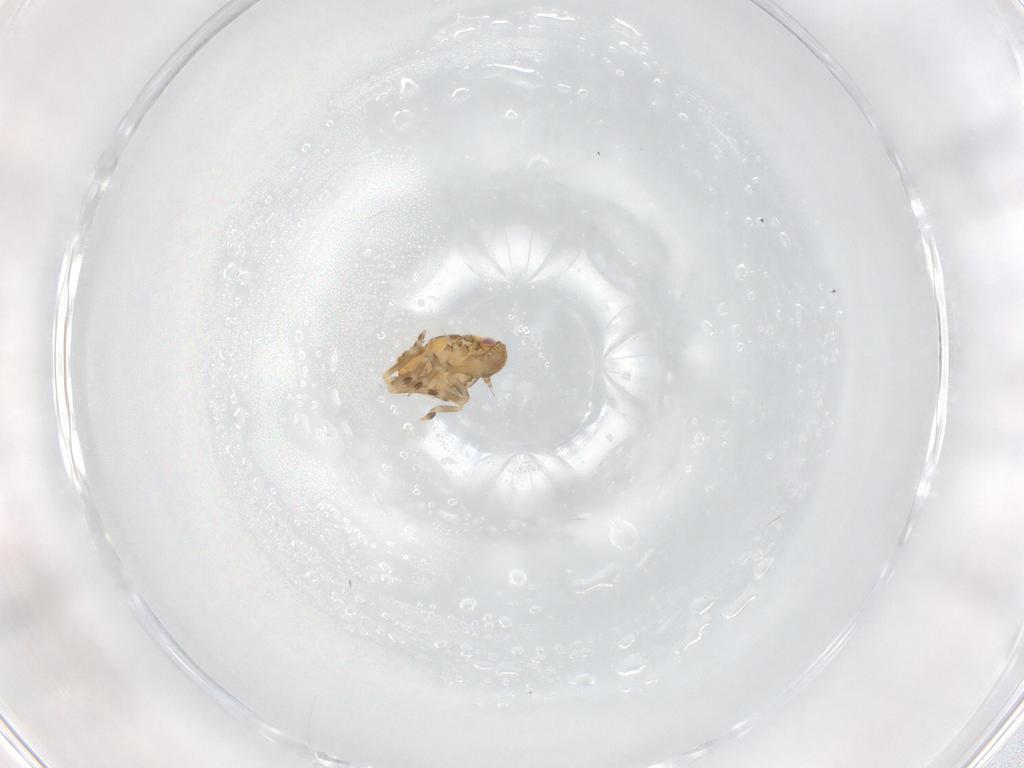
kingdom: Animalia
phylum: Arthropoda
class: Insecta
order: Hemiptera
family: Flatidae
